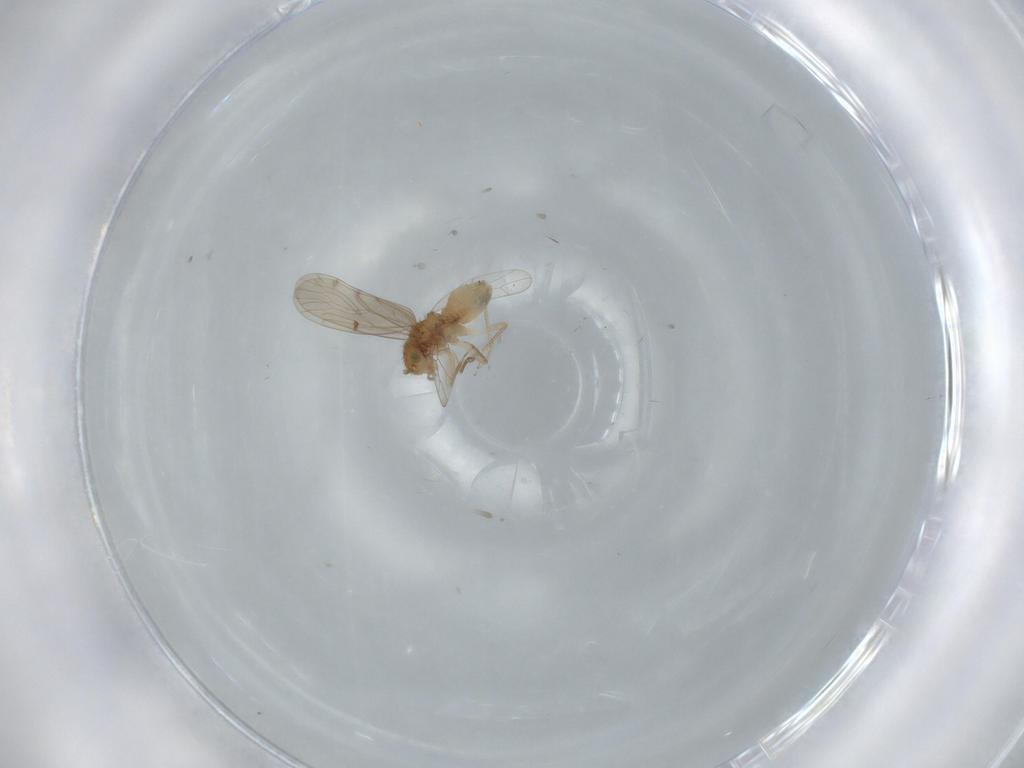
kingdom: Animalia
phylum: Arthropoda
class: Insecta
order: Psocodea
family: Ectopsocidae
